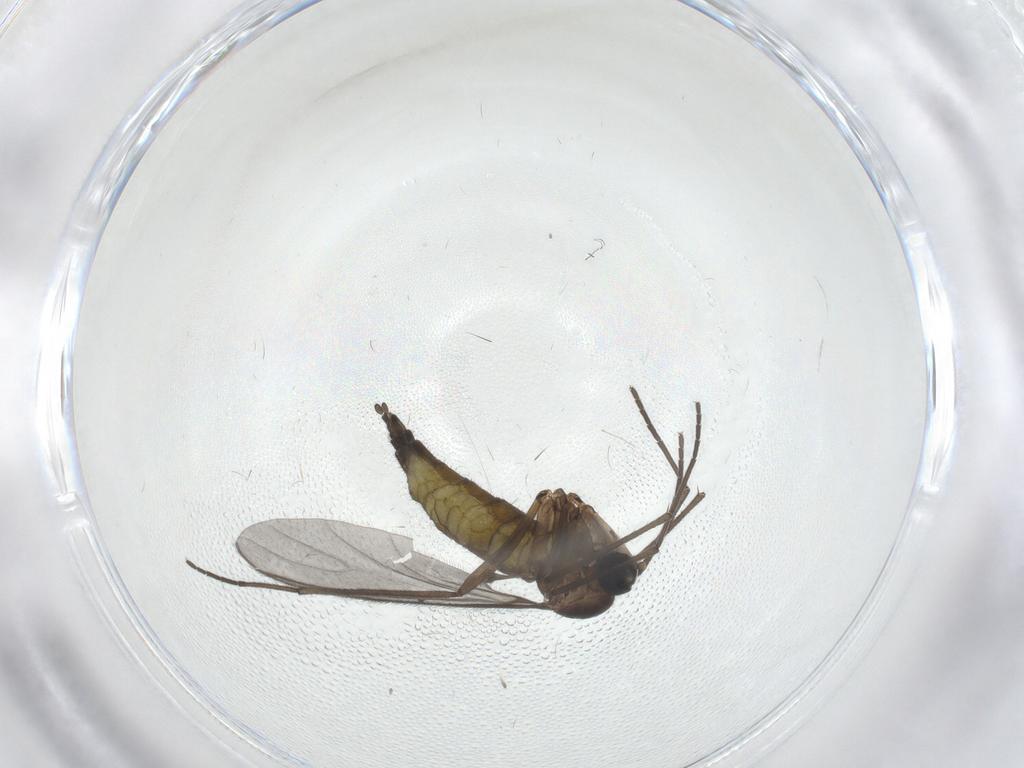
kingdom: Animalia
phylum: Arthropoda
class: Insecta
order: Diptera
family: Sciaridae
